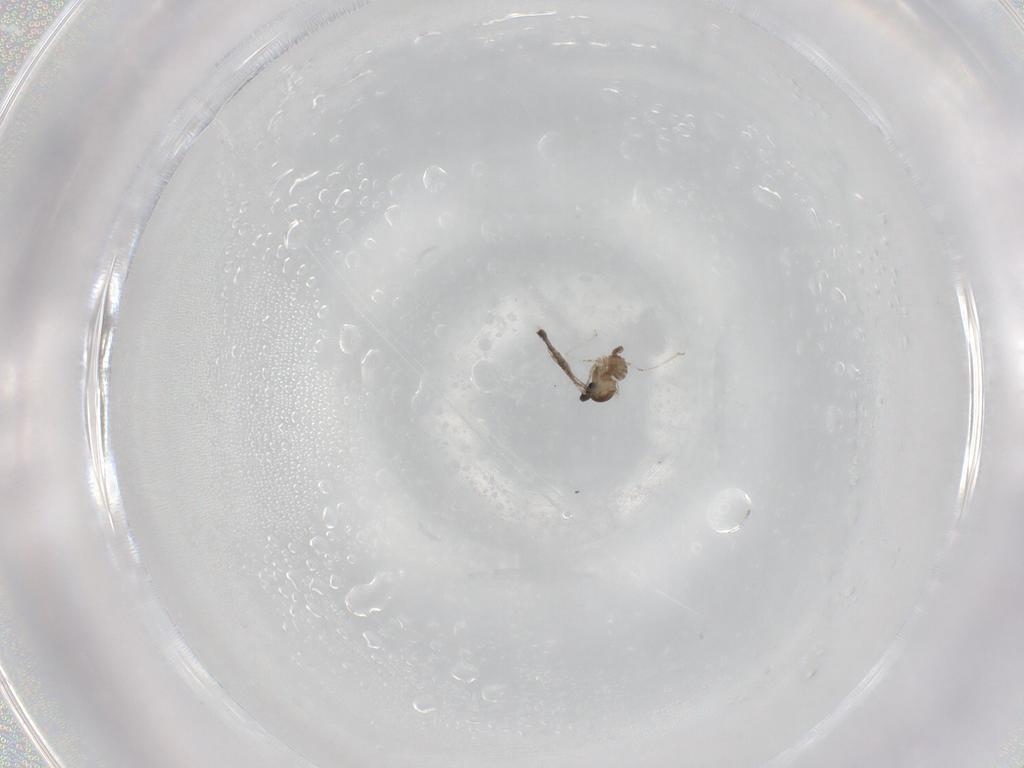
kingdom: Animalia
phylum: Arthropoda
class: Insecta
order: Diptera
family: Cecidomyiidae
